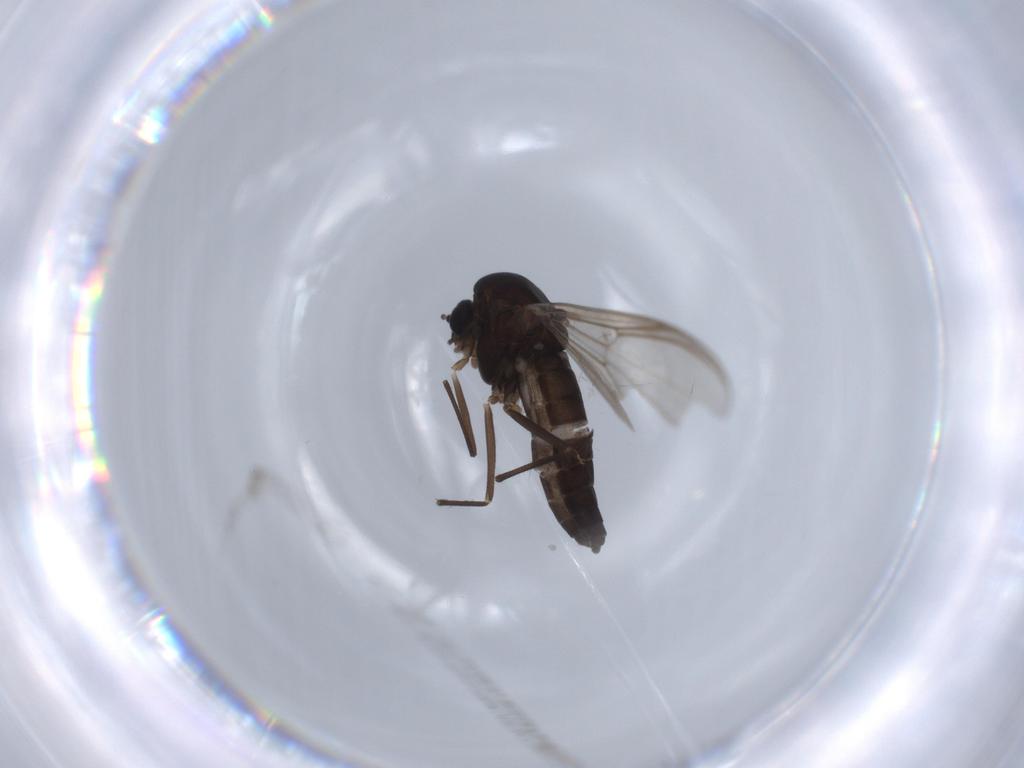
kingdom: Animalia
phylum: Arthropoda
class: Insecta
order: Diptera
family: Chironomidae
